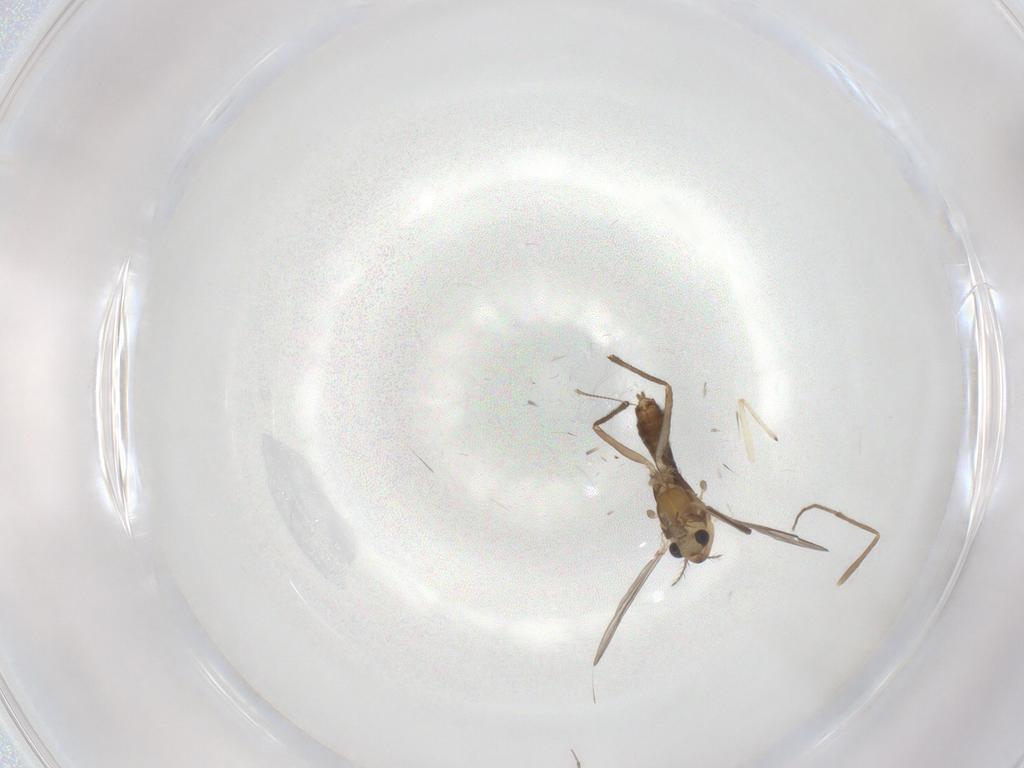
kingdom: Animalia
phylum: Arthropoda
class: Insecta
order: Diptera
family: Chironomidae
